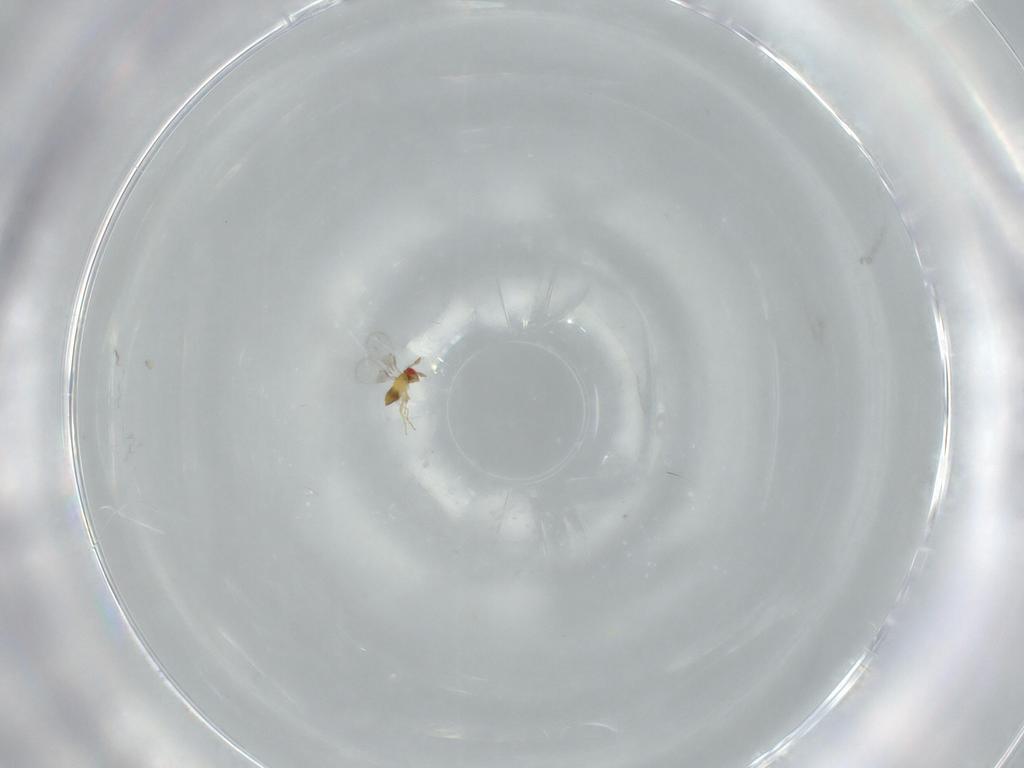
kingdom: Animalia
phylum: Arthropoda
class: Insecta
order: Hymenoptera
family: Trichogrammatidae
